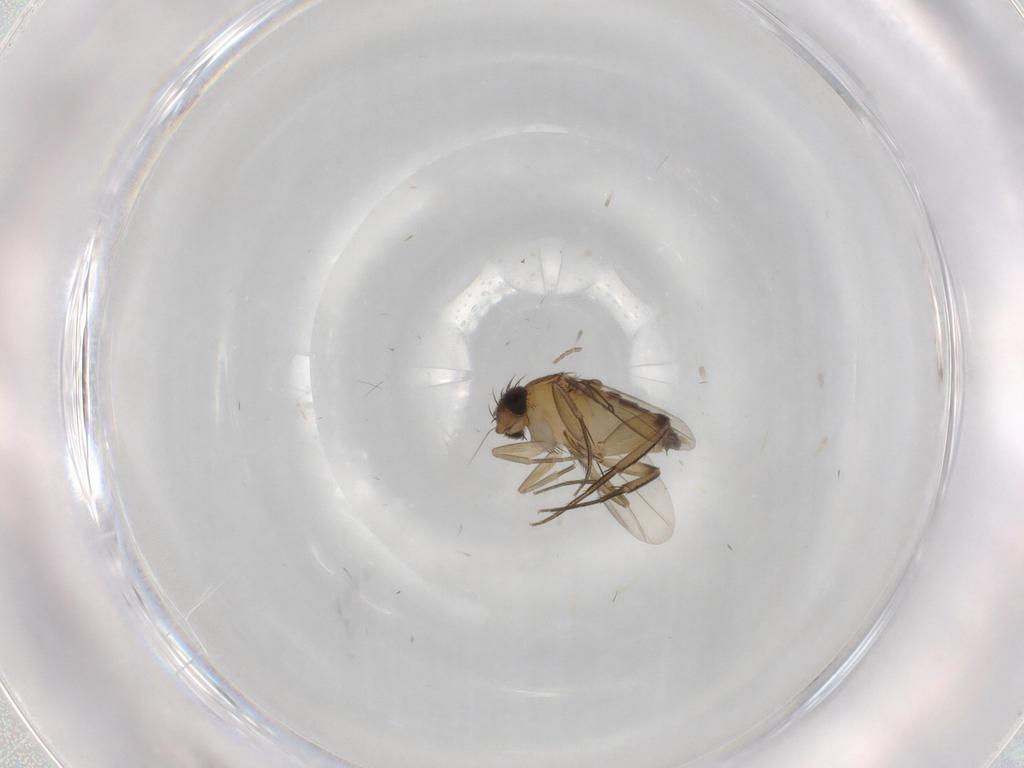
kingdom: Animalia
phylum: Arthropoda
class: Insecta
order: Diptera
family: Phoridae
